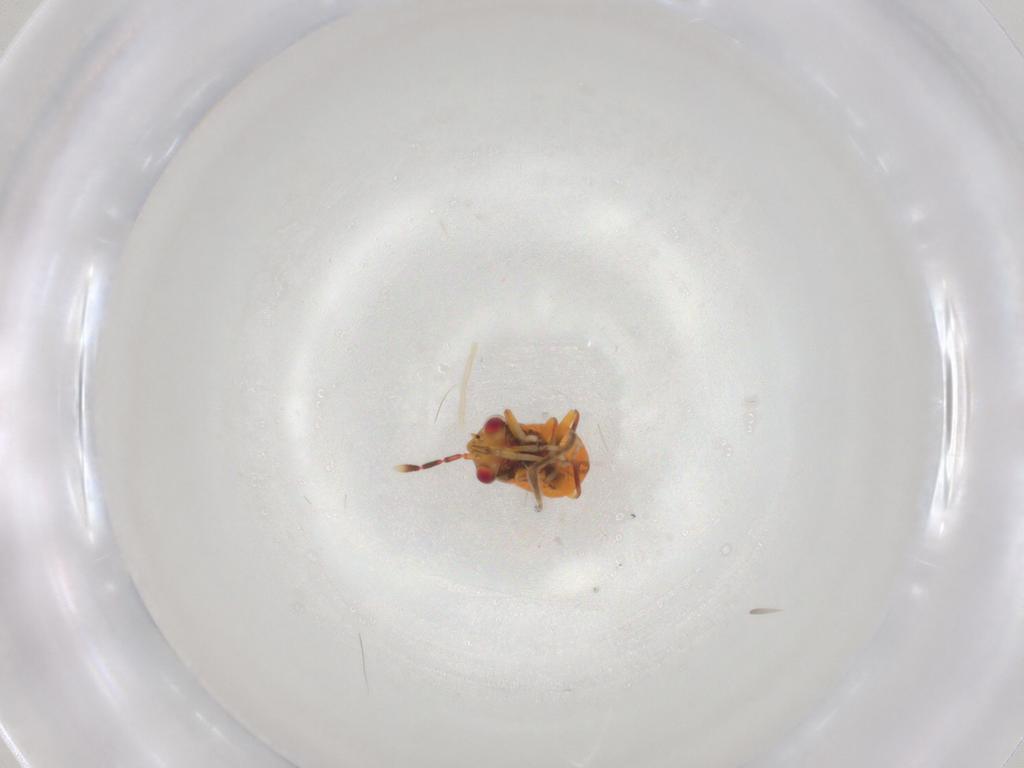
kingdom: Animalia
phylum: Arthropoda
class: Insecta
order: Hemiptera
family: Nogodinidae
